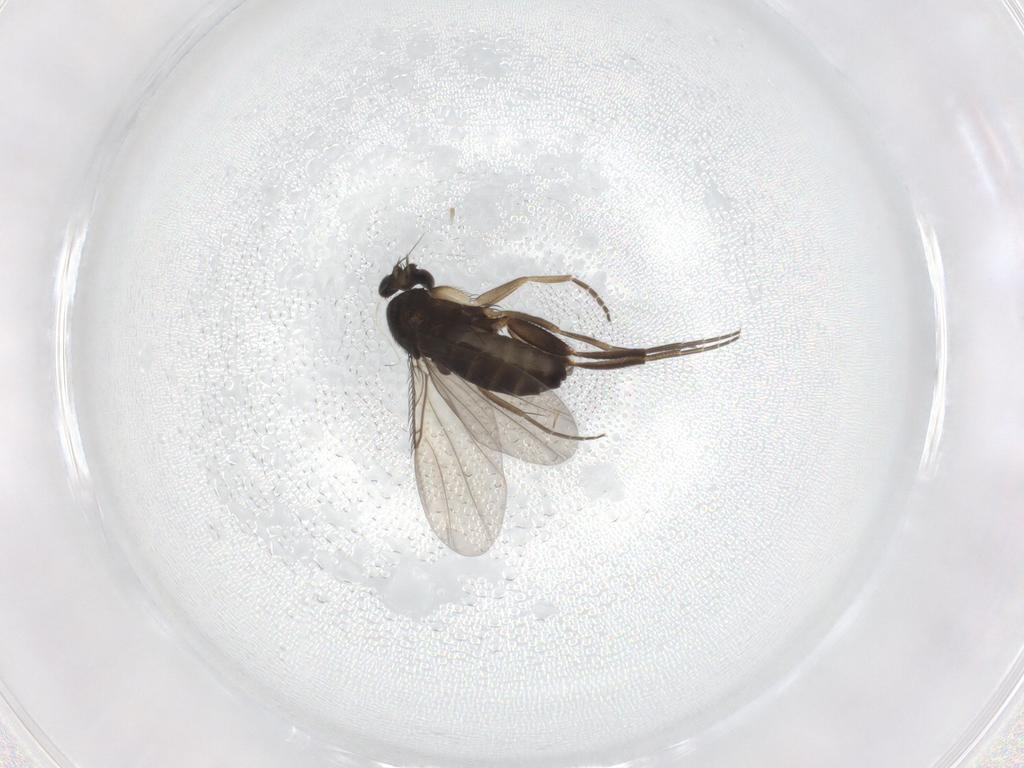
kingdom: Animalia
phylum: Arthropoda
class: Insecta
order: Diptera
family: Phoridae
